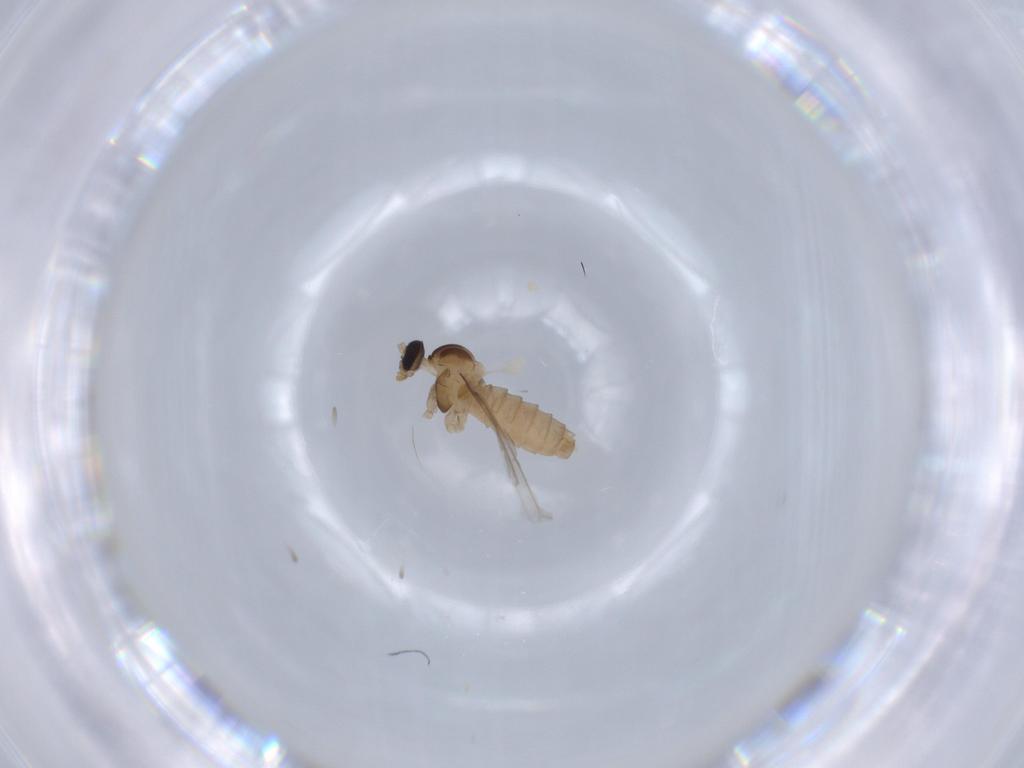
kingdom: Animalia
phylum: Arthropoda
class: Insecta
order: Diptera
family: Cecidomyiidae
